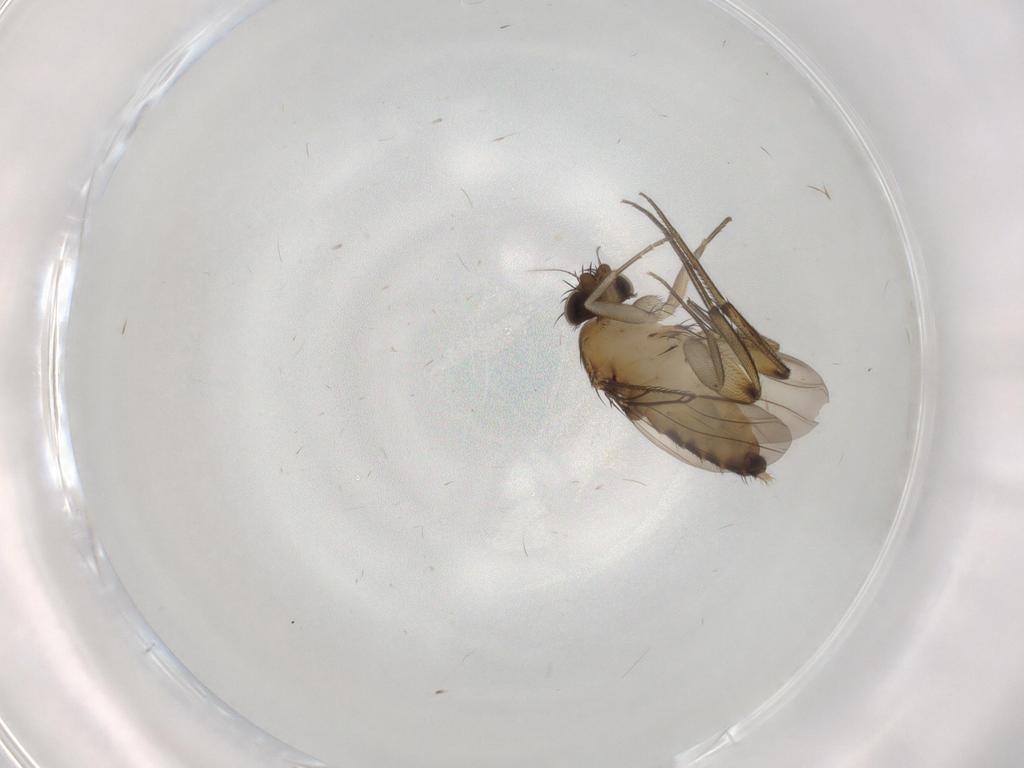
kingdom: Animalia
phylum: Arthropoda
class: Insecta
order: Diptera
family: Phoridae
